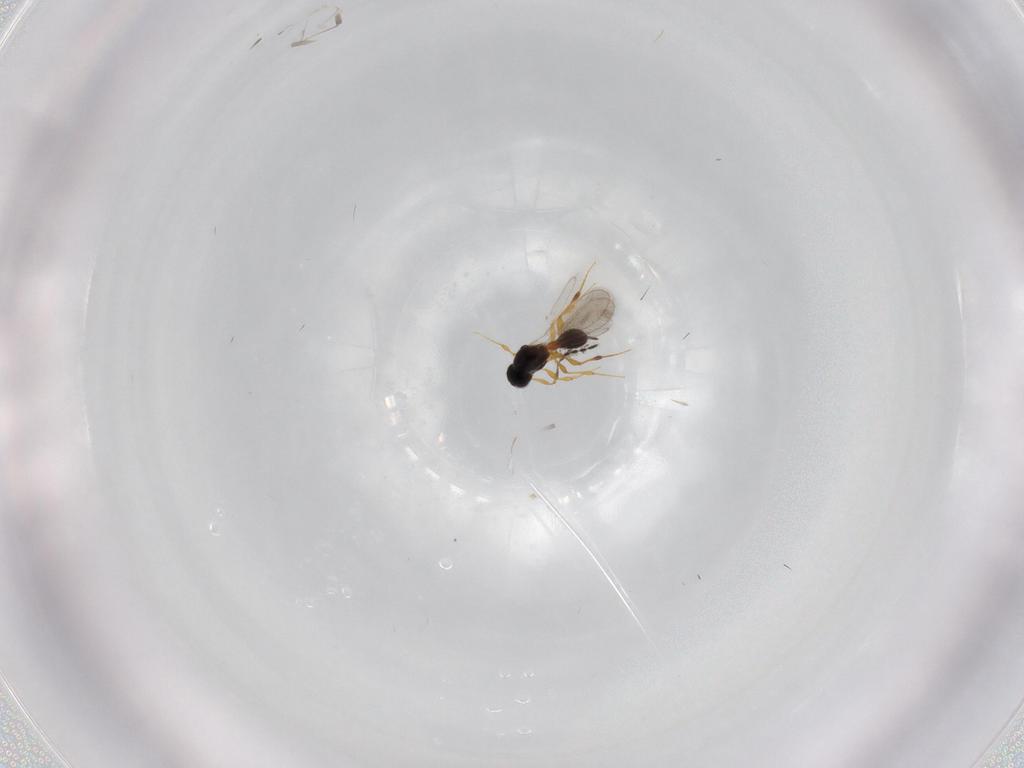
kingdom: Animalia
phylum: Arthropoda
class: Insecta
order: Hymenoptera
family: Platygastridae
